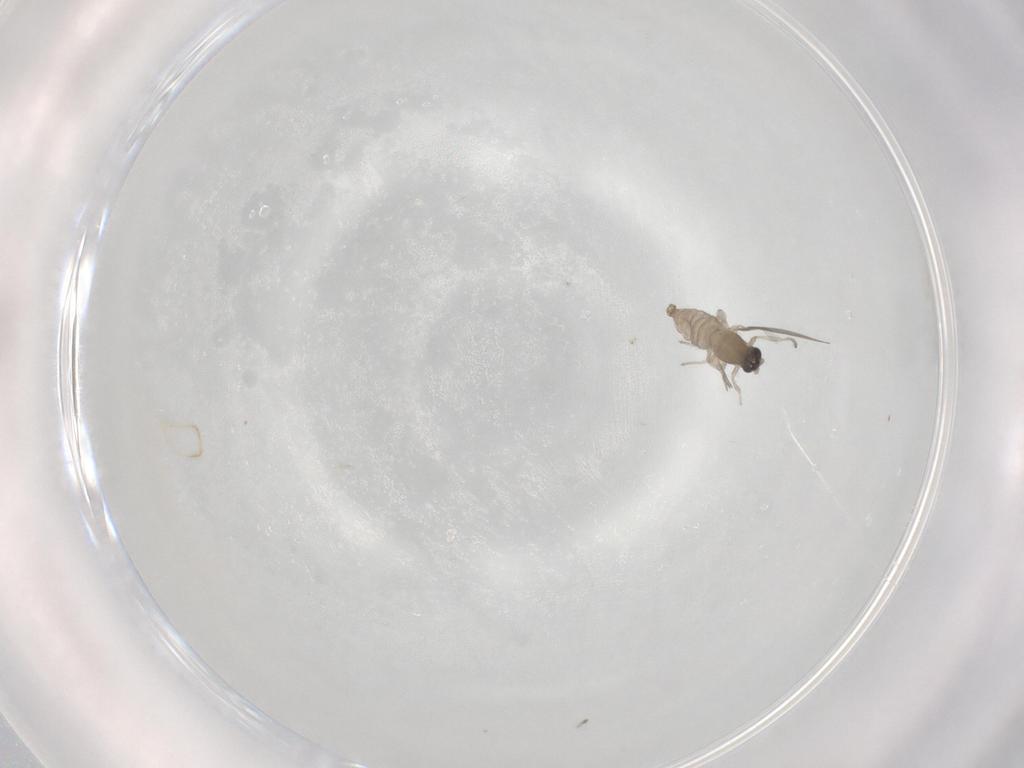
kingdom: Animalia
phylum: Arthropoda
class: Insecta
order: Diptera
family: Cecidomyiidae
